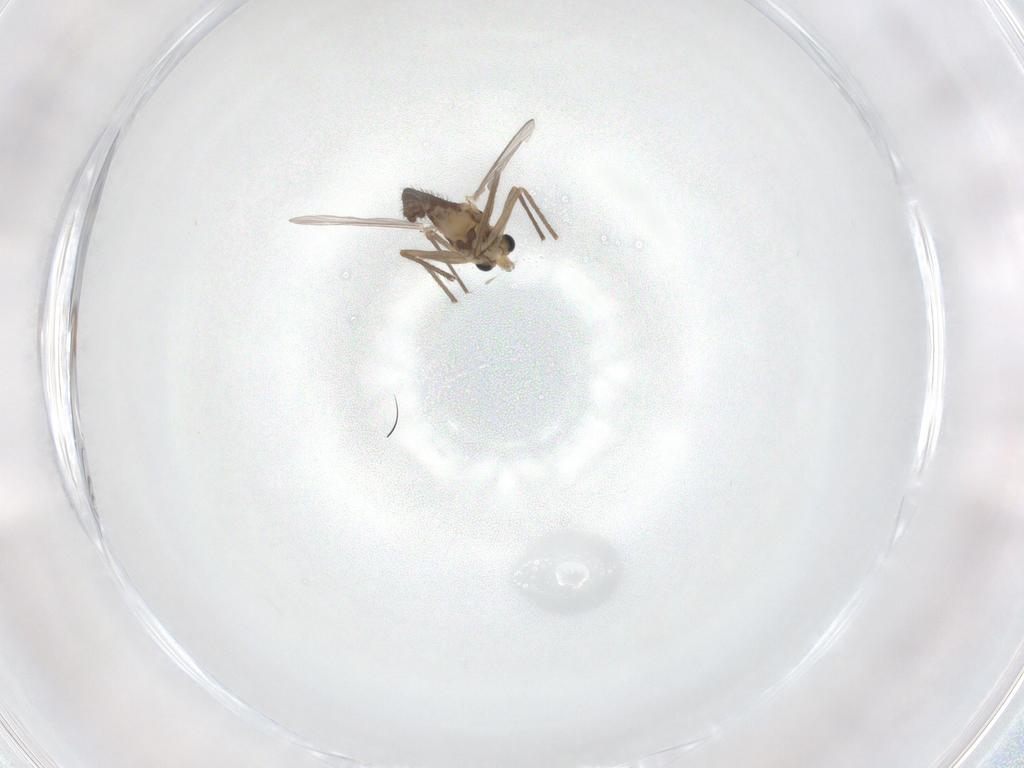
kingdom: Animalia
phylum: Arthropoda
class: Insecta
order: Diptera
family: Chironomidae
